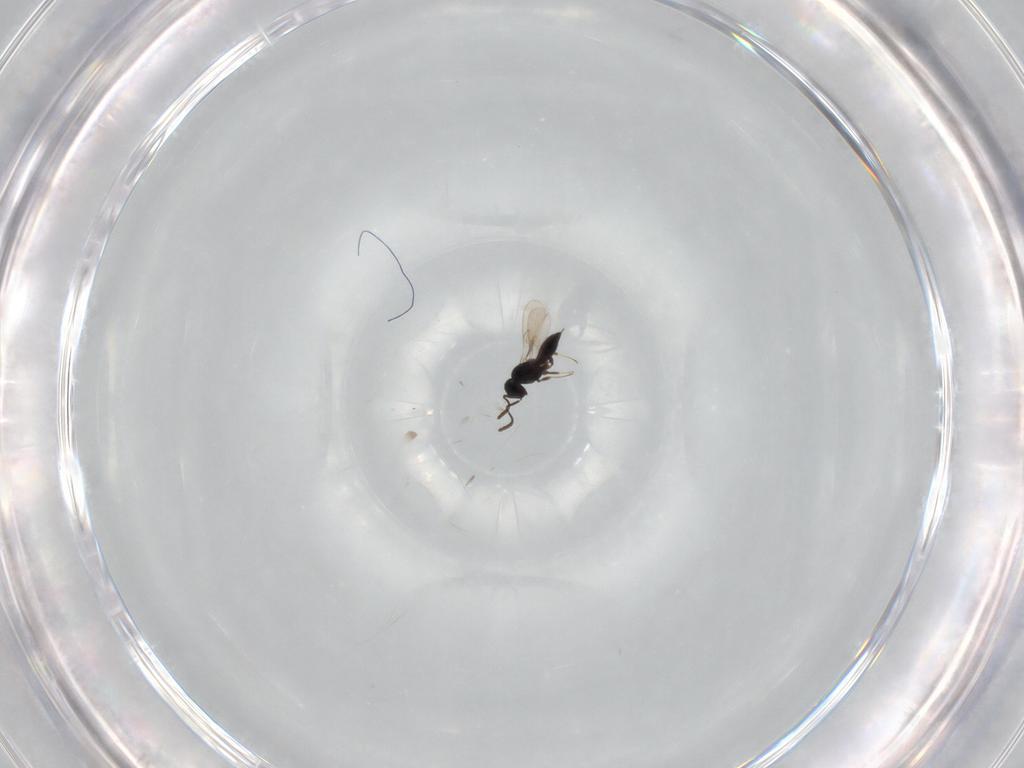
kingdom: Animalia
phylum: Arthropoda
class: Insecta
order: Hymenoptera
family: Scelionidae
